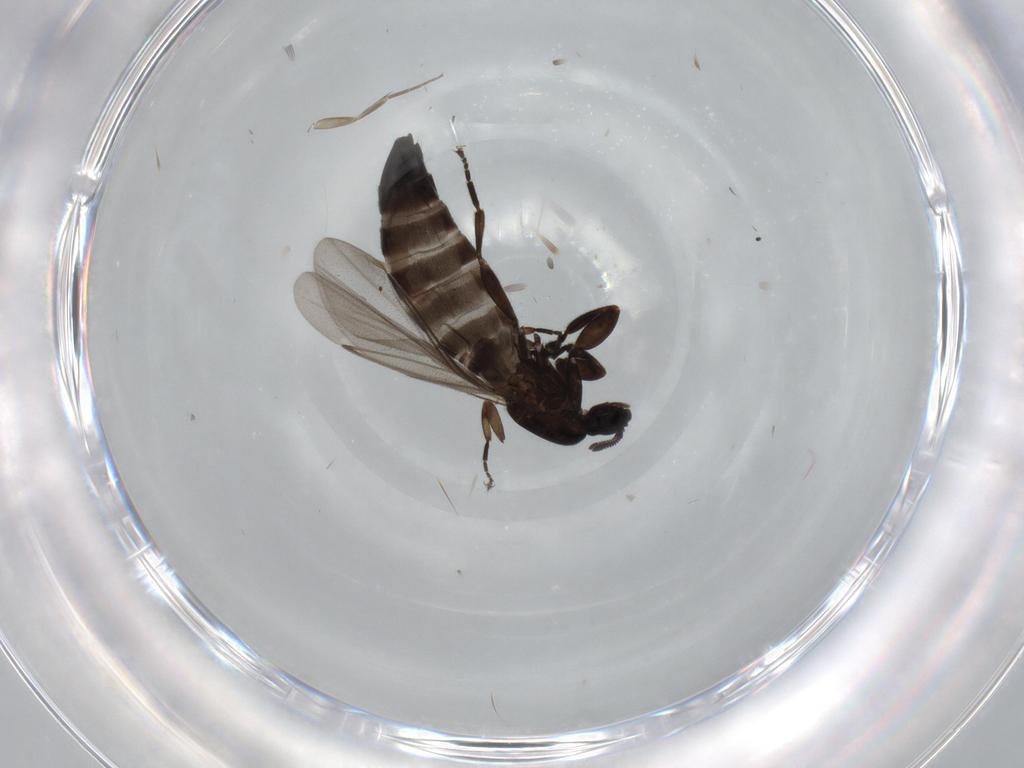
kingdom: Animalia
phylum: Arthropoda
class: Insecta
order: Diptera
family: Scatopsidae
